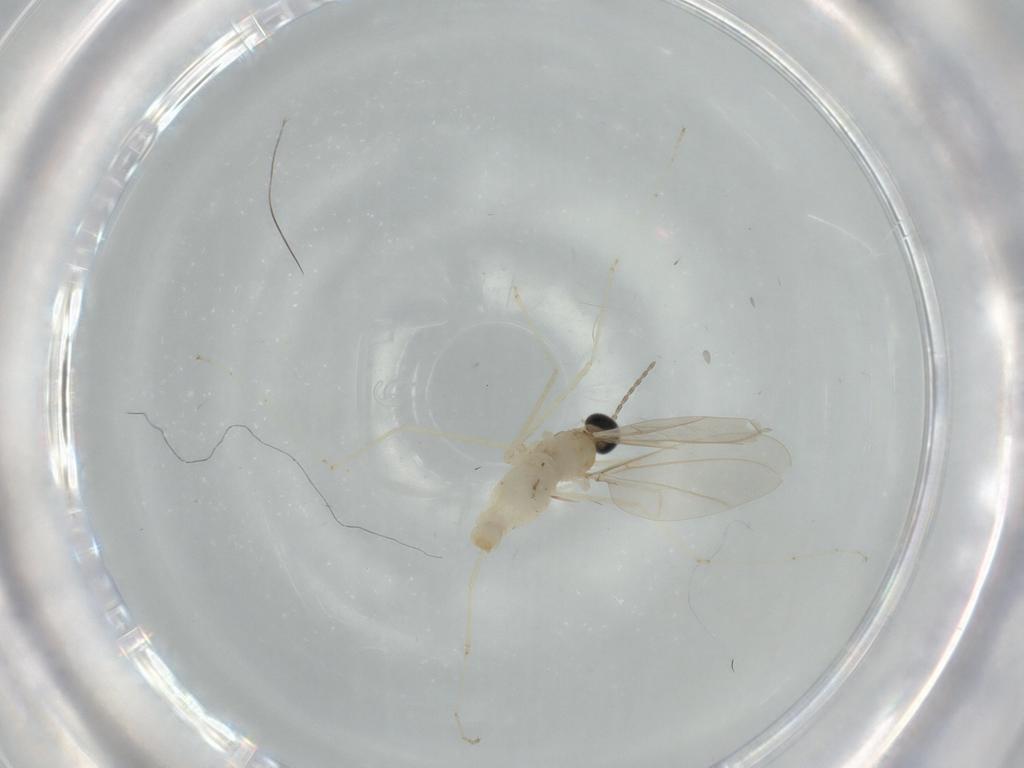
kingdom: Animalia
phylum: Arthropoda
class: Insecta
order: Diptera
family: Cecidomyiidae
